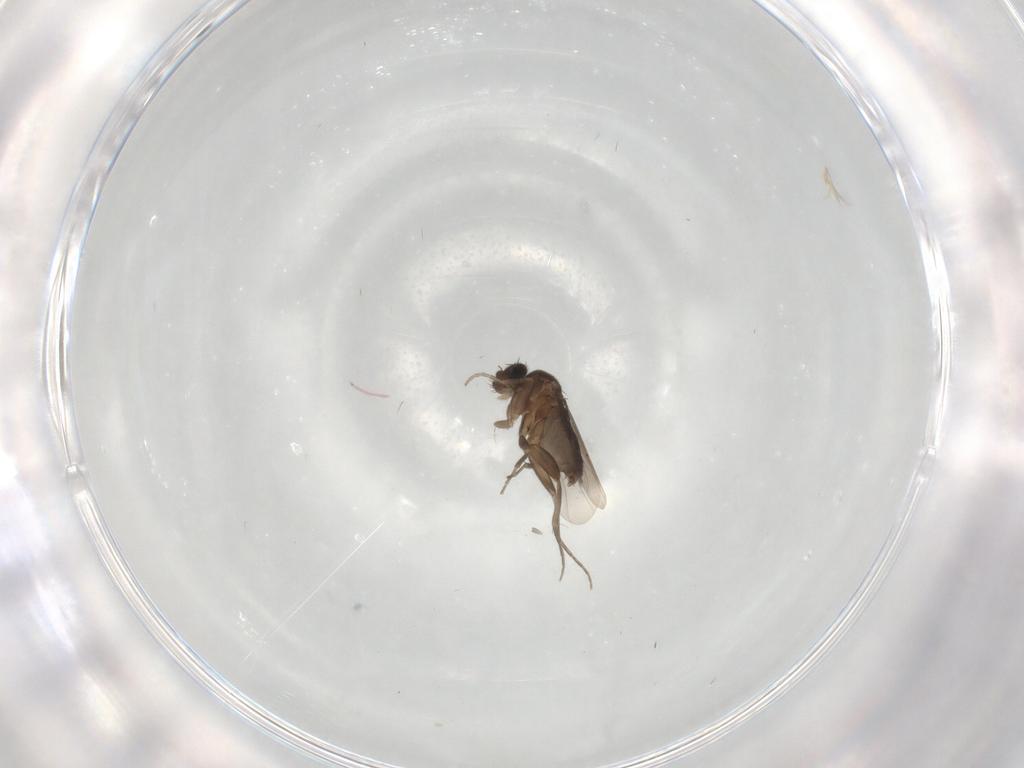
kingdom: Animalia
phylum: Arthropoda
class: Insecta
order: Diptera
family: Phoridae
